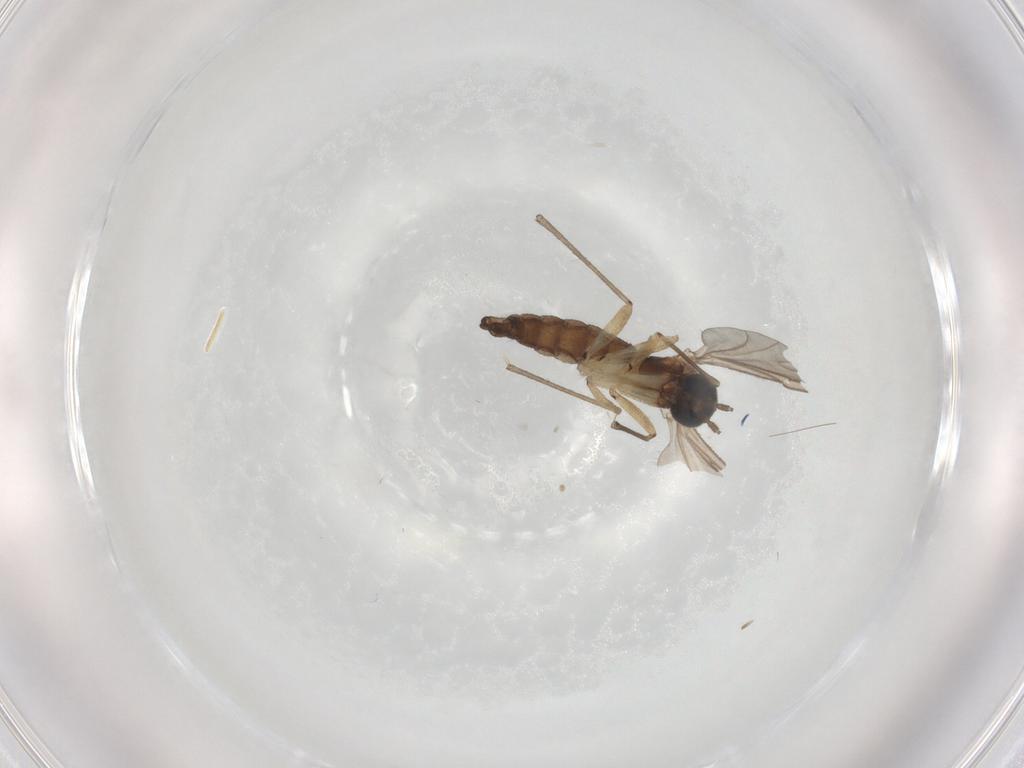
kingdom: Animalia
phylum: Arthropoda
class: Insecta
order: Diptera
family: Sciaridae
